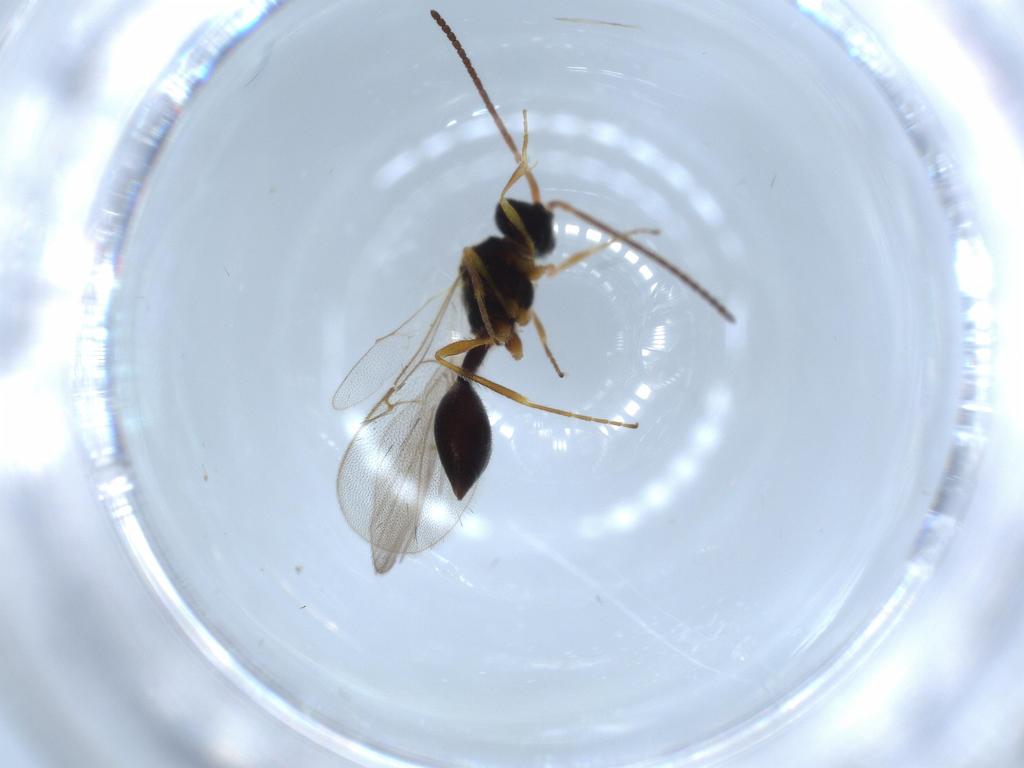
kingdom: Animalia
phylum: Arthropoda
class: Insecta
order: Hymenoptera
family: Diapriidae
